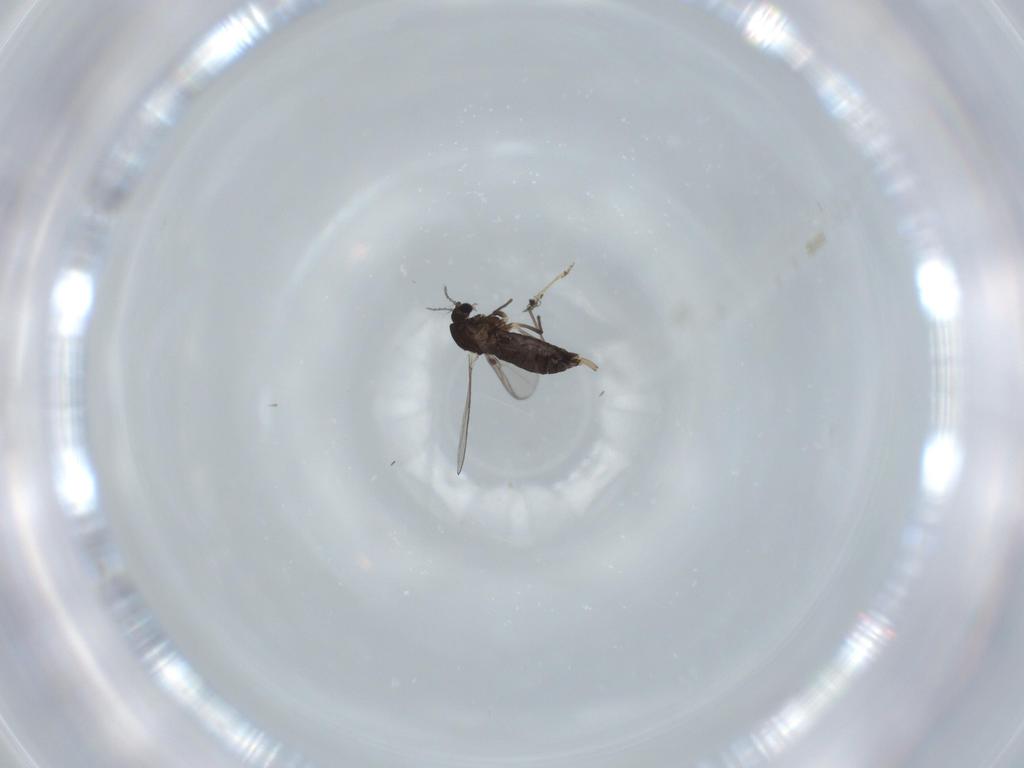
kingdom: Animalia
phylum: Arthropoda
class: Insecta
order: Diptera
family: Chironomidae
